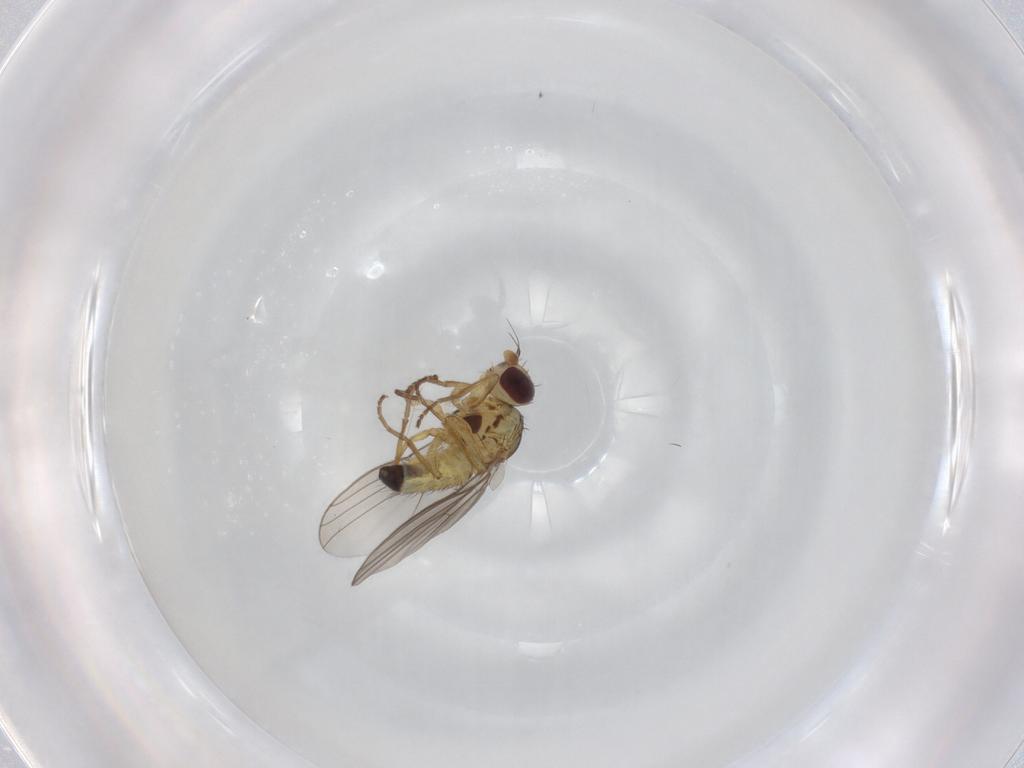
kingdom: Animalia
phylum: Arthropoda
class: Insecta
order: Diptera
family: Agromyzidae
